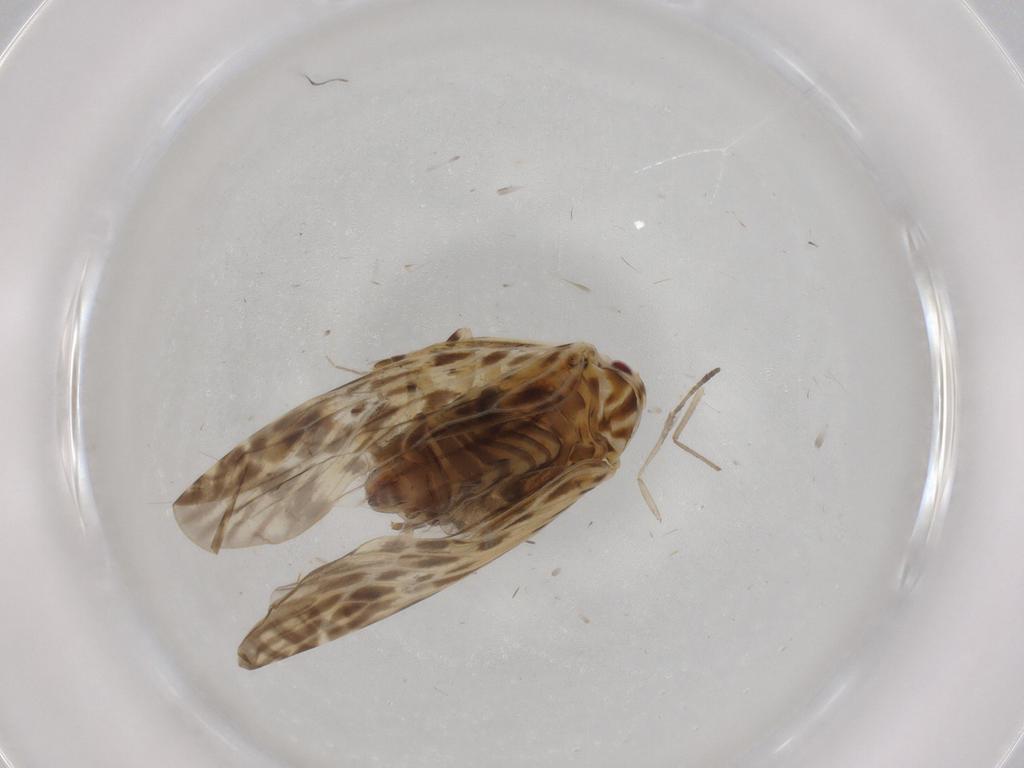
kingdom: Animalia
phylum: Arthropoda
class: Insecta
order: Hemiptera
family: Derbidae
